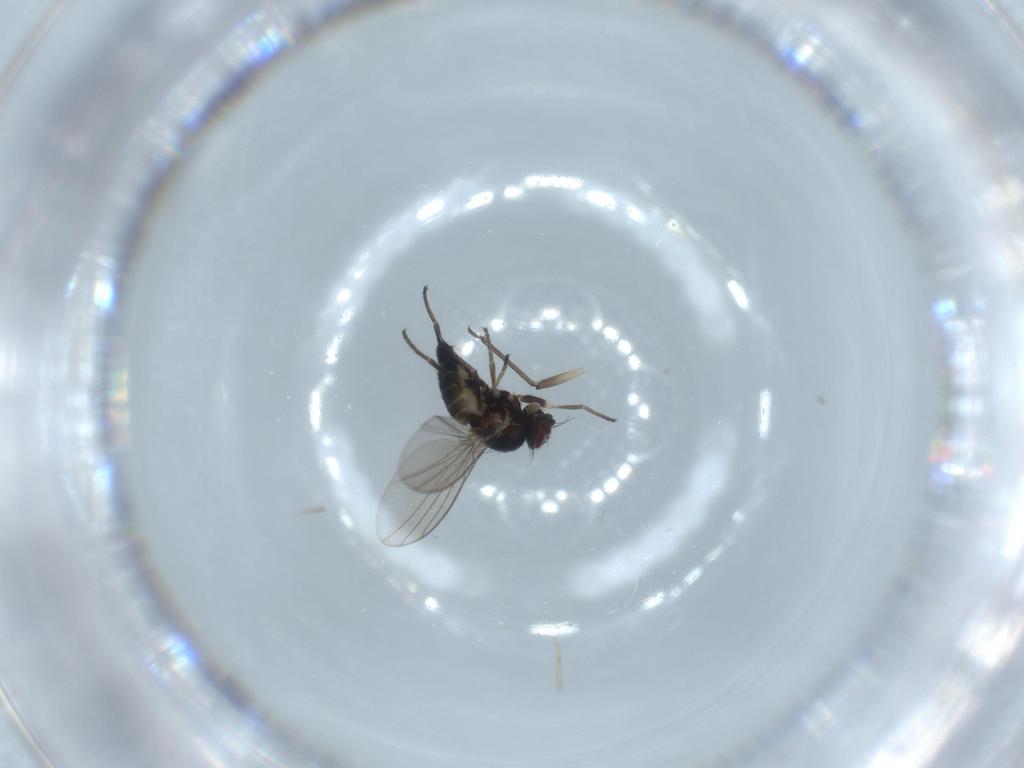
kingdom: Animalia
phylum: Arthropoda
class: Insecta
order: Diptera
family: Agromyzidae
